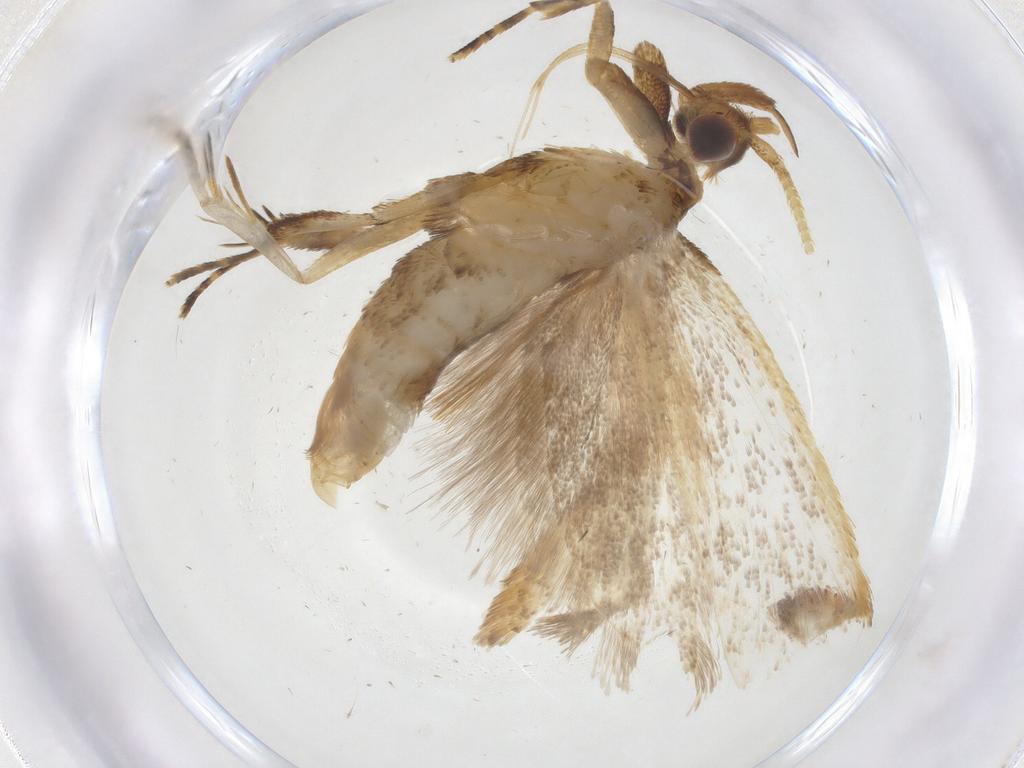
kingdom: Animalia
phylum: Arthropoda
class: Insecta
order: Lepidoptera
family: Lecithoceridae
